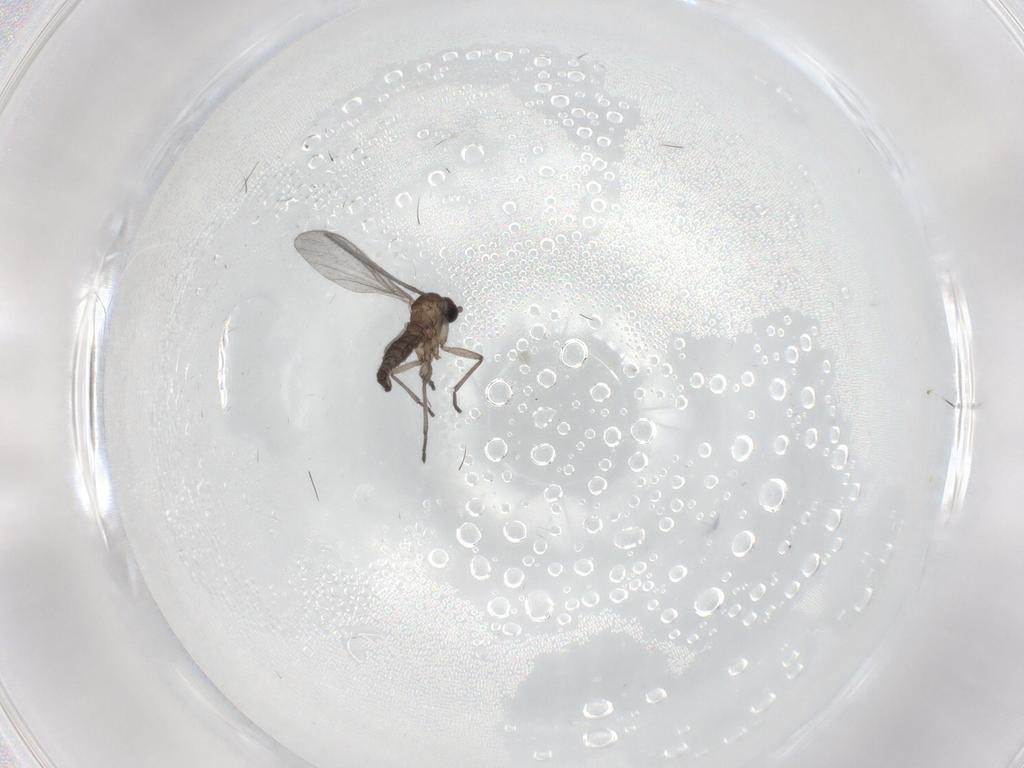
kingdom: Animalia
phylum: Arthropoda
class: Insecta
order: Diptera
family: Sciaridae
